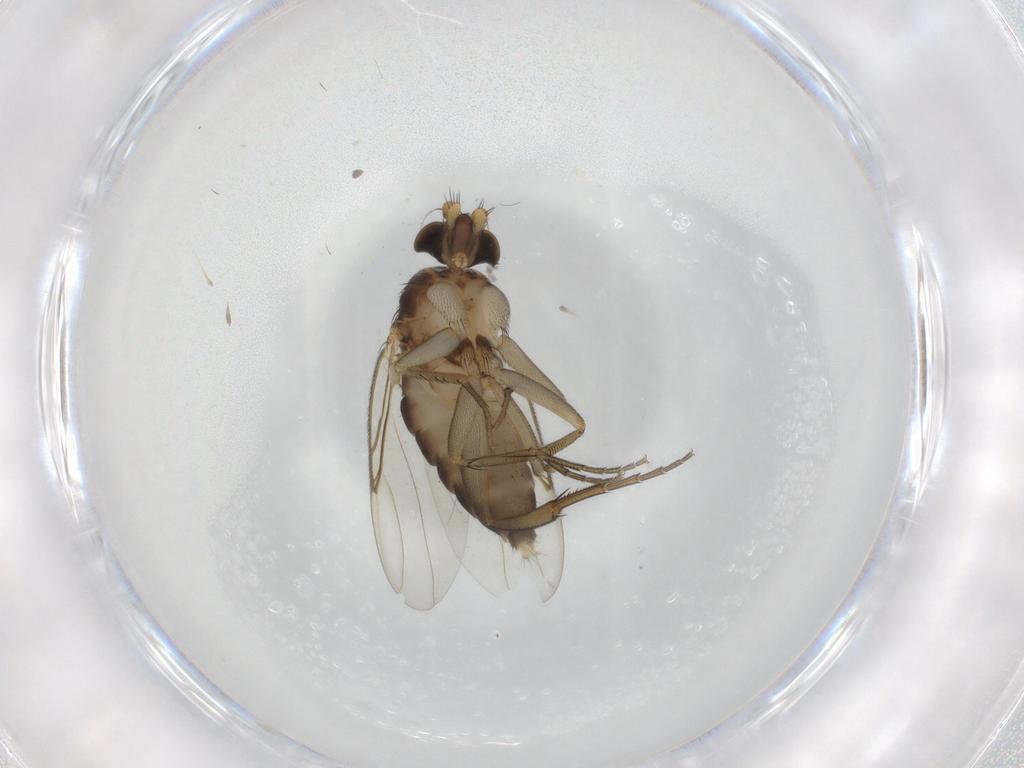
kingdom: Animalia
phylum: Arthropoda
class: Insecta
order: Diptera
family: Phoridae
